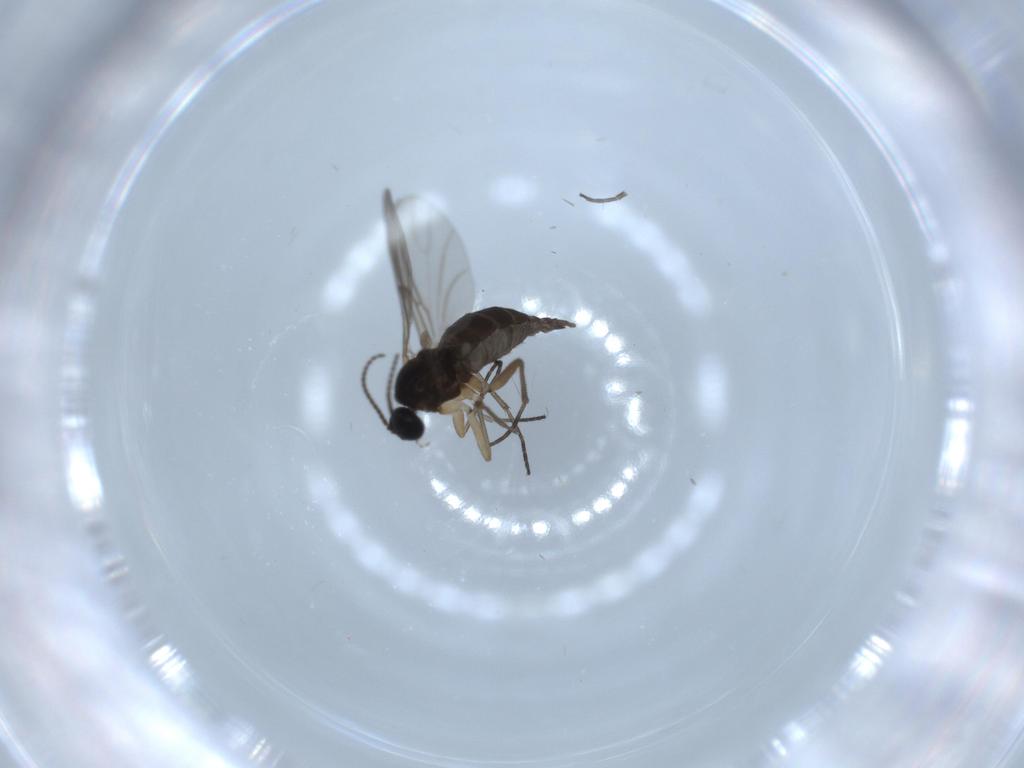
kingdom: Animalia
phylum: Arthropoda
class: Insecta
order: Diptera
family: Sciaridae
